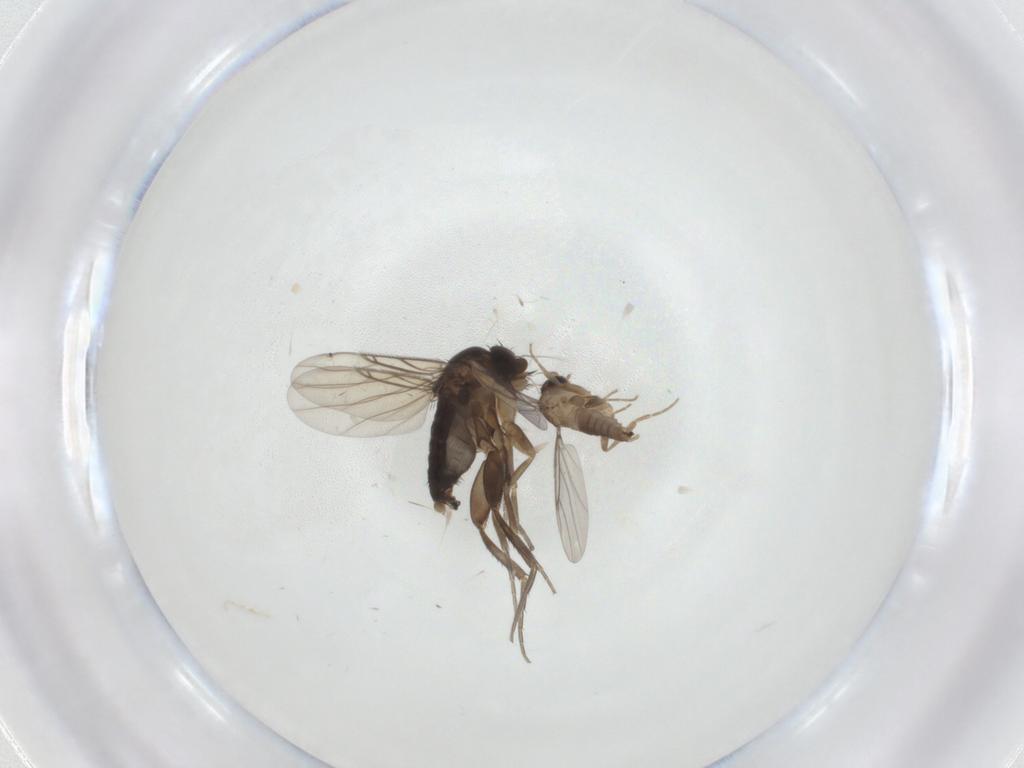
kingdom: Animalia
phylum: Arthropoda
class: Insecta
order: Diptera
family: Phoridae
